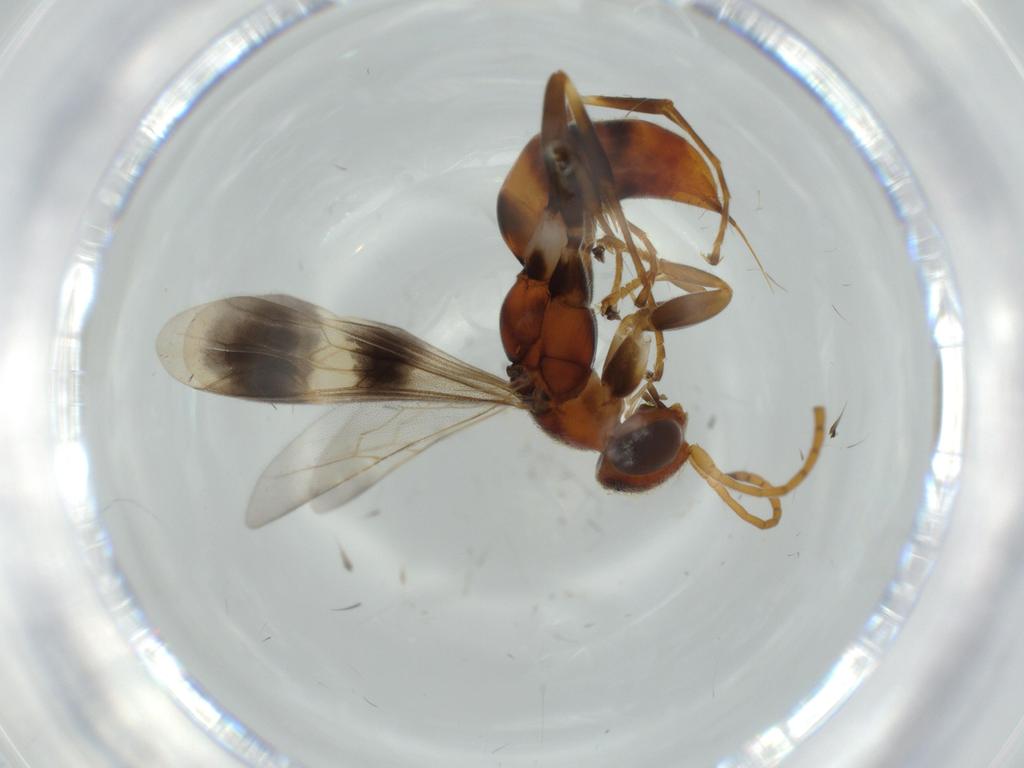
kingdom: Animalia
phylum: Arthropoda
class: Insecta
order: Hymenoptera
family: Pompilidae
